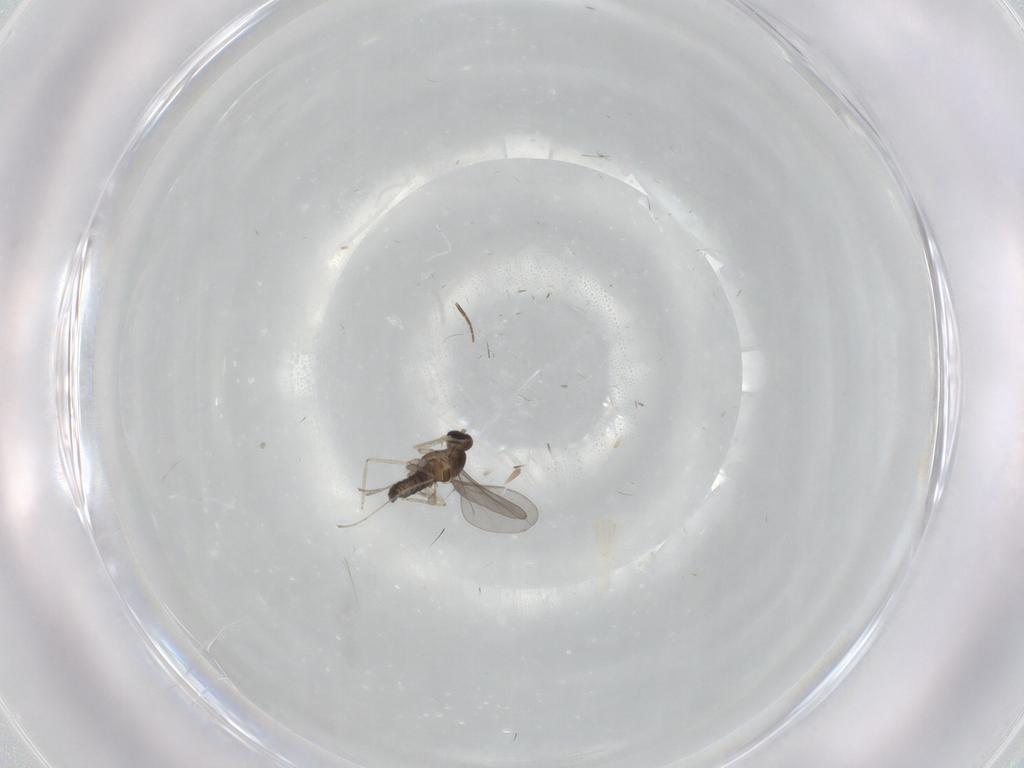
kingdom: Animalia
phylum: Arthropoda
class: Insecta
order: Diptera
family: Cecidomyiidae
